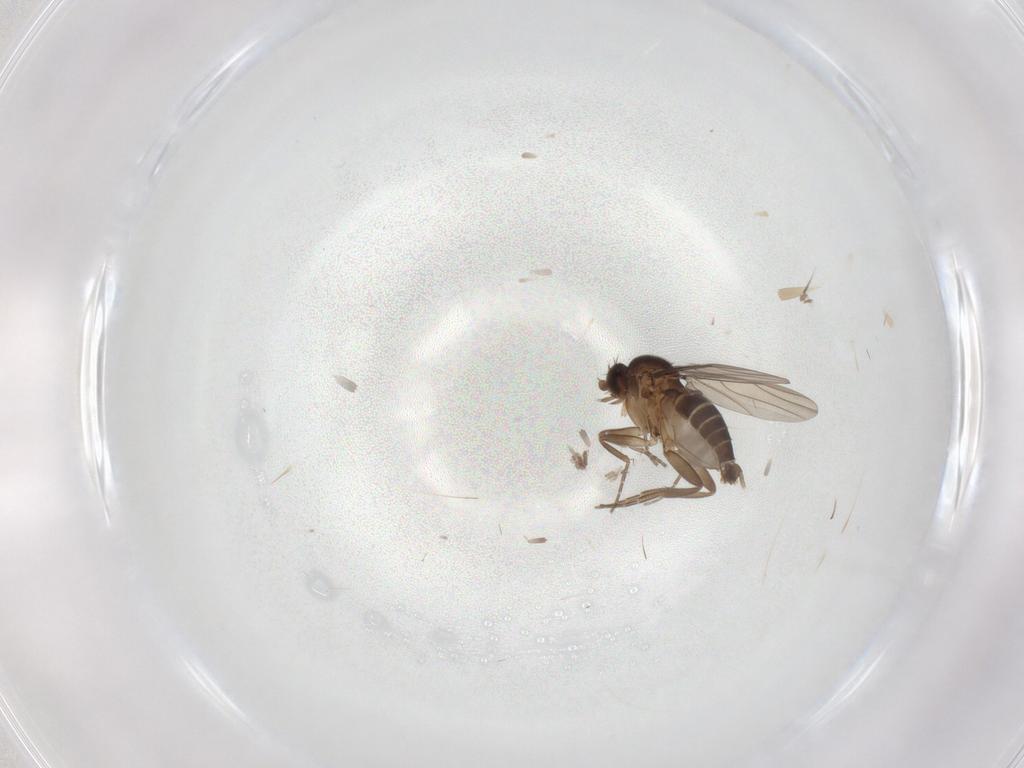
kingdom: Animalia
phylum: Arthropoda
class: Insecta
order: Diptera
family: Phoridae
